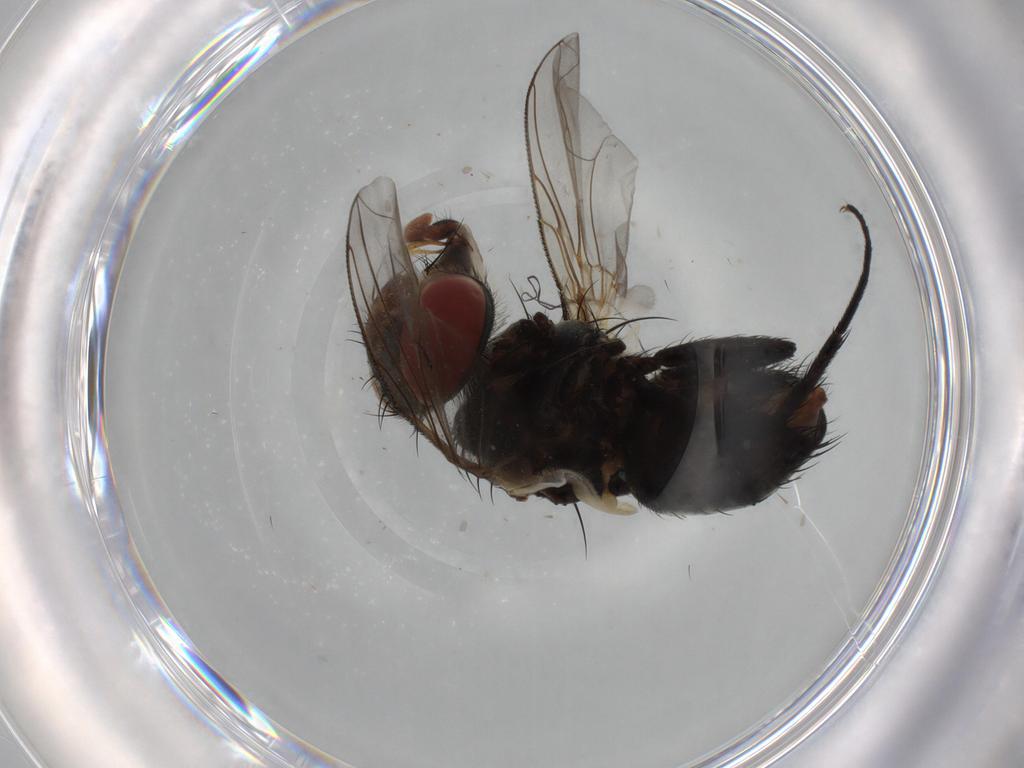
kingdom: Animalia
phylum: Arthropoda
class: Insecta
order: Diptera
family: Tachinidae
